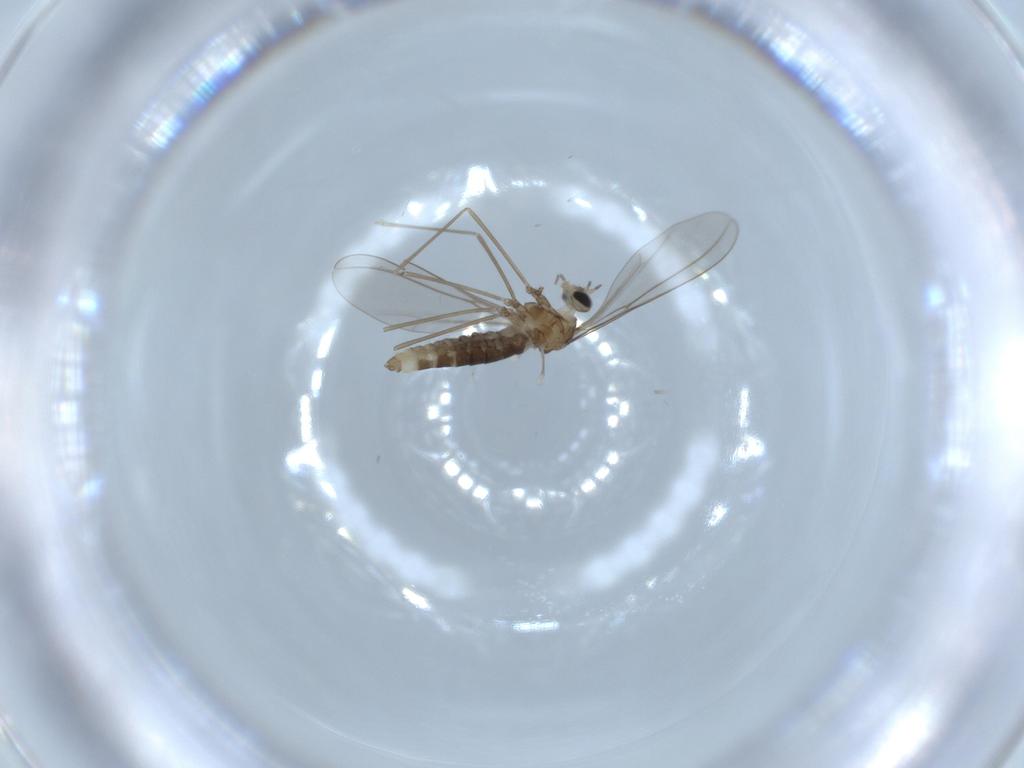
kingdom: Animalia
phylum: Arthropoda
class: Insecta
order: Diptera
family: Cecidomyiidae
